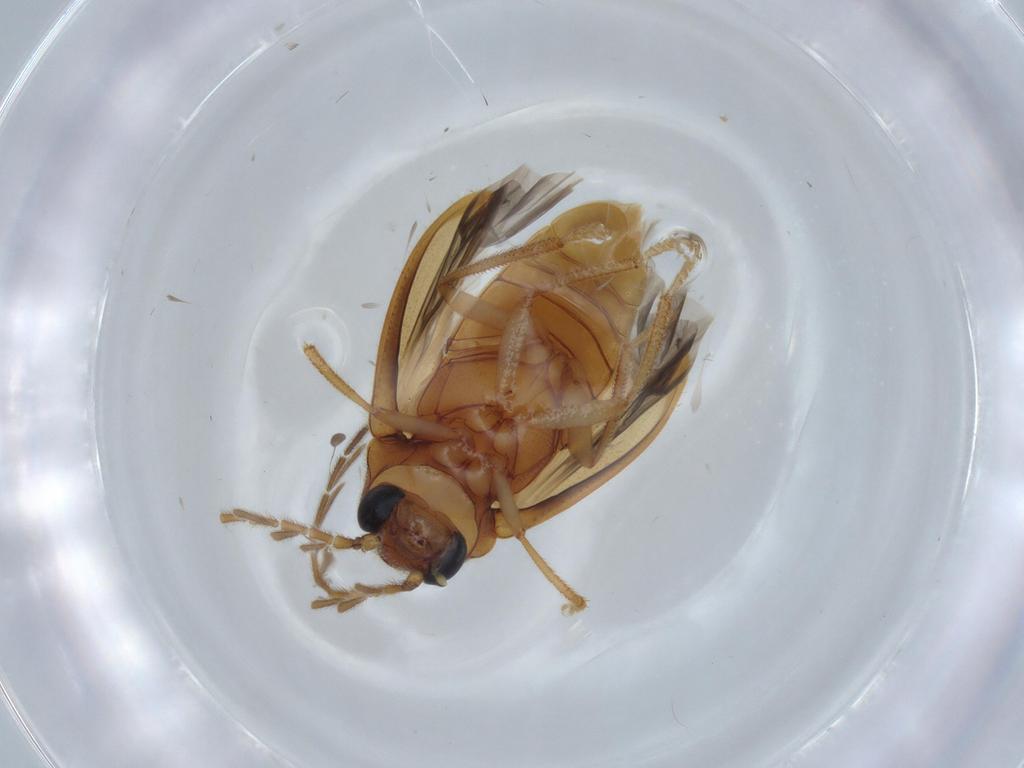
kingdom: Animalia
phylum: Arthropoda
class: Insecta
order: Coleoptera
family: Ptilodactylidae
